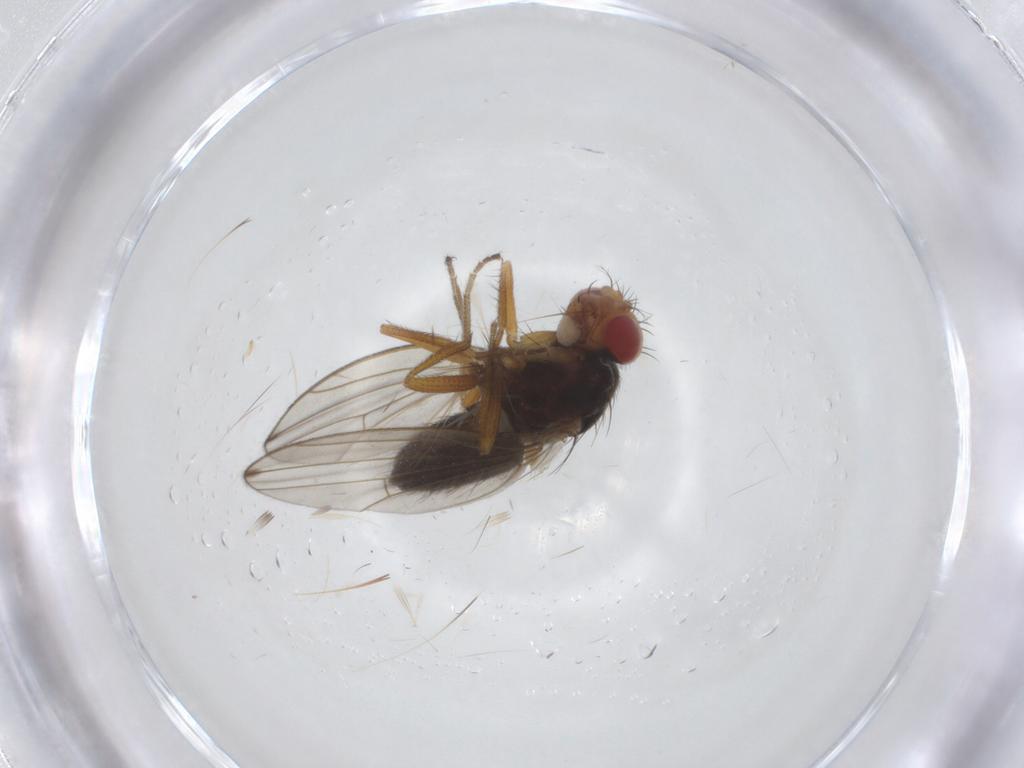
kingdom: Animalia
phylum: Arthropoda
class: Insecta
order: Diptera
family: Drosophilidae
